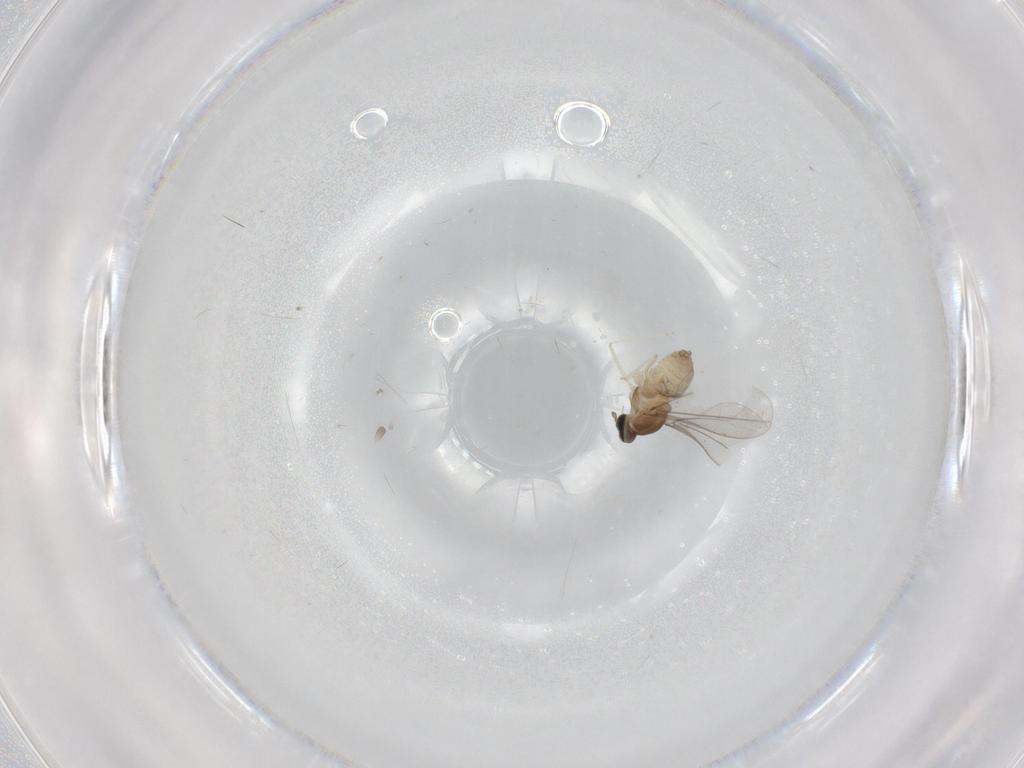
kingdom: Animalia
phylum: Arthropoda
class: Insecta
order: Diptera
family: Cecidomyiidae
